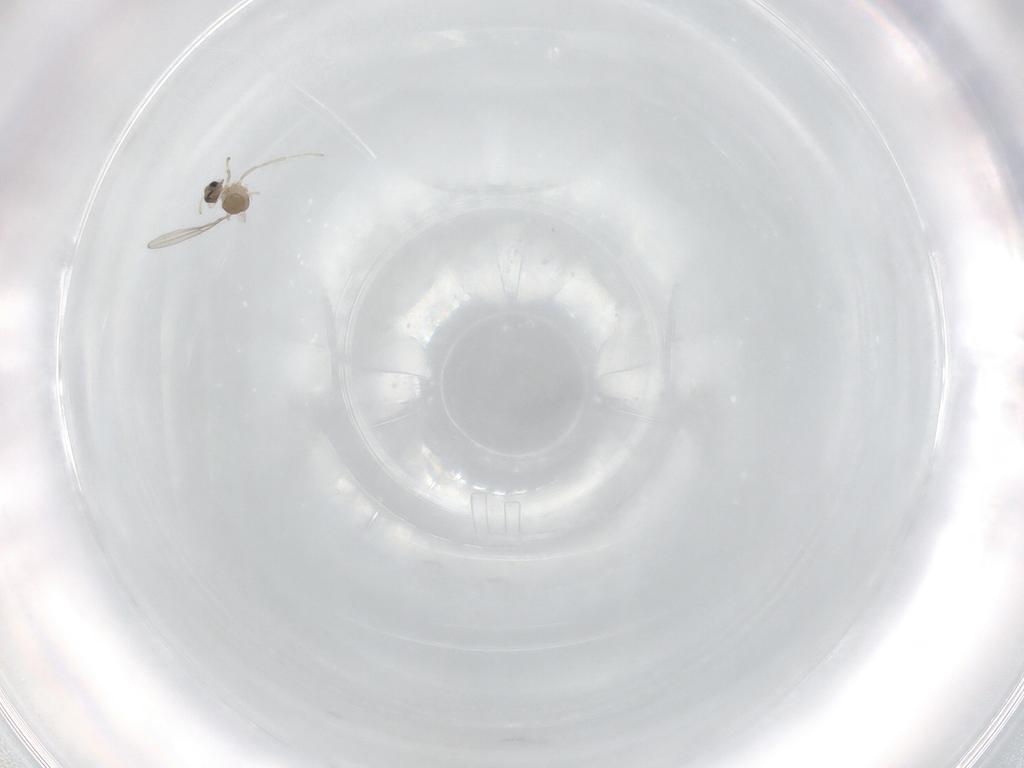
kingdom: Animalia
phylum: Arthropoda
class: Insecta
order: Diptera
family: Cecidomyiidae
